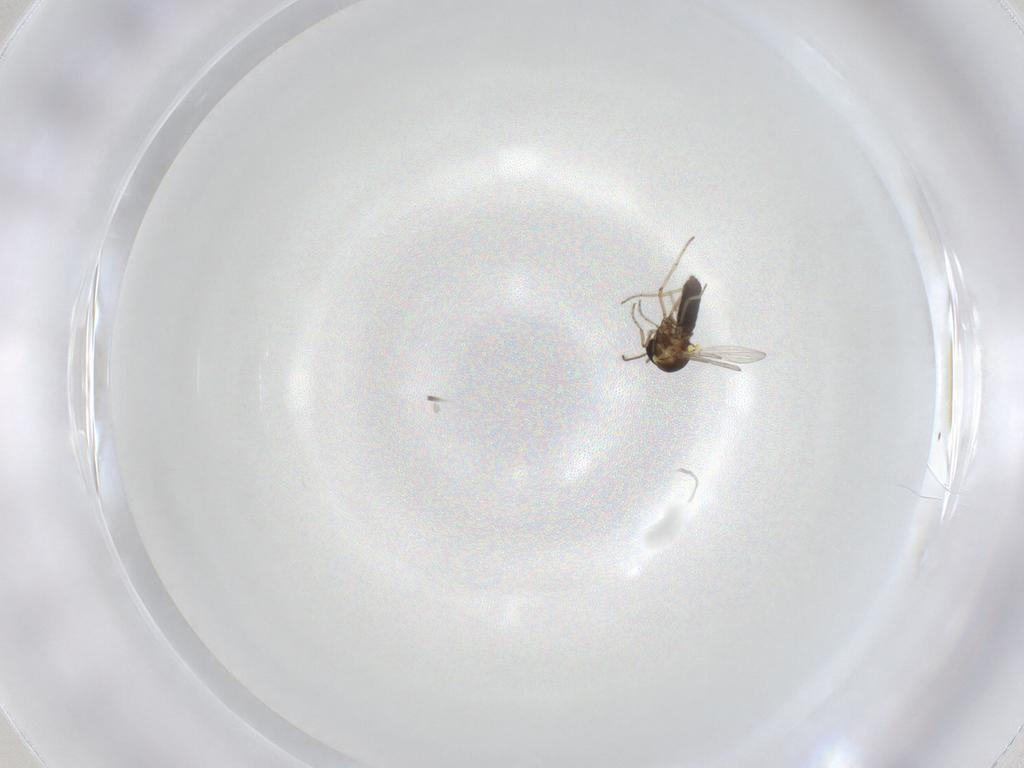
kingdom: Animalia
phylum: Arthropoda
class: Insecta
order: Diptera
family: Ceratopogonidae
